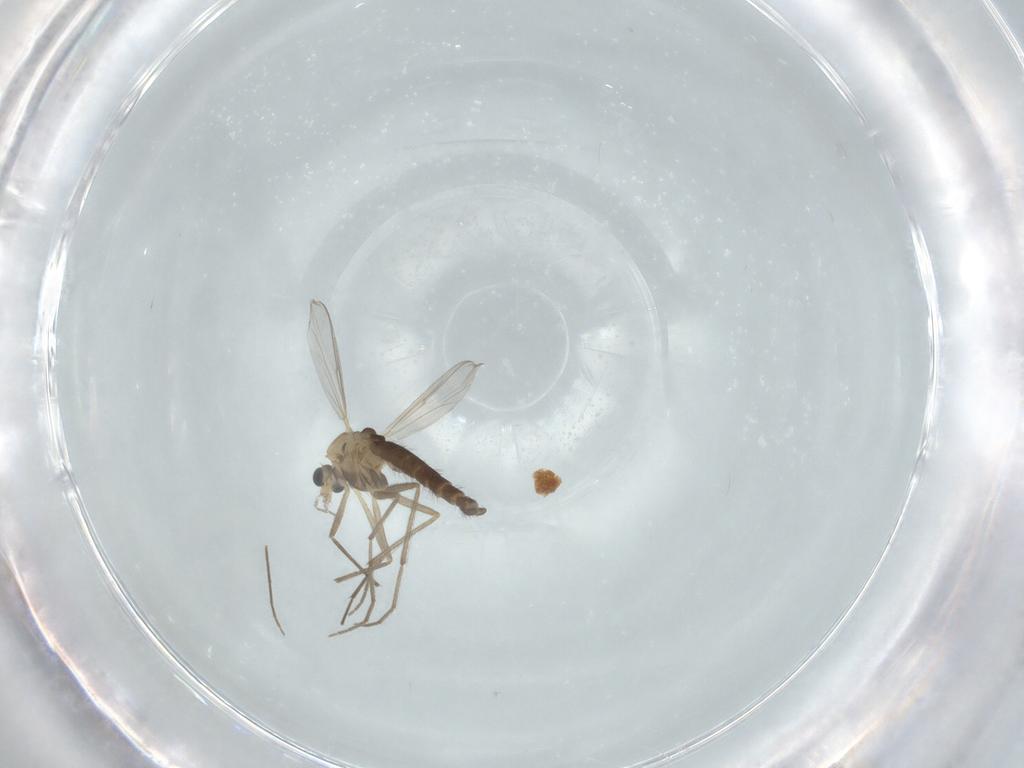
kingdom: Animalia
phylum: Arthropoda
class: Insecta
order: Diptera
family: Chironomidae
